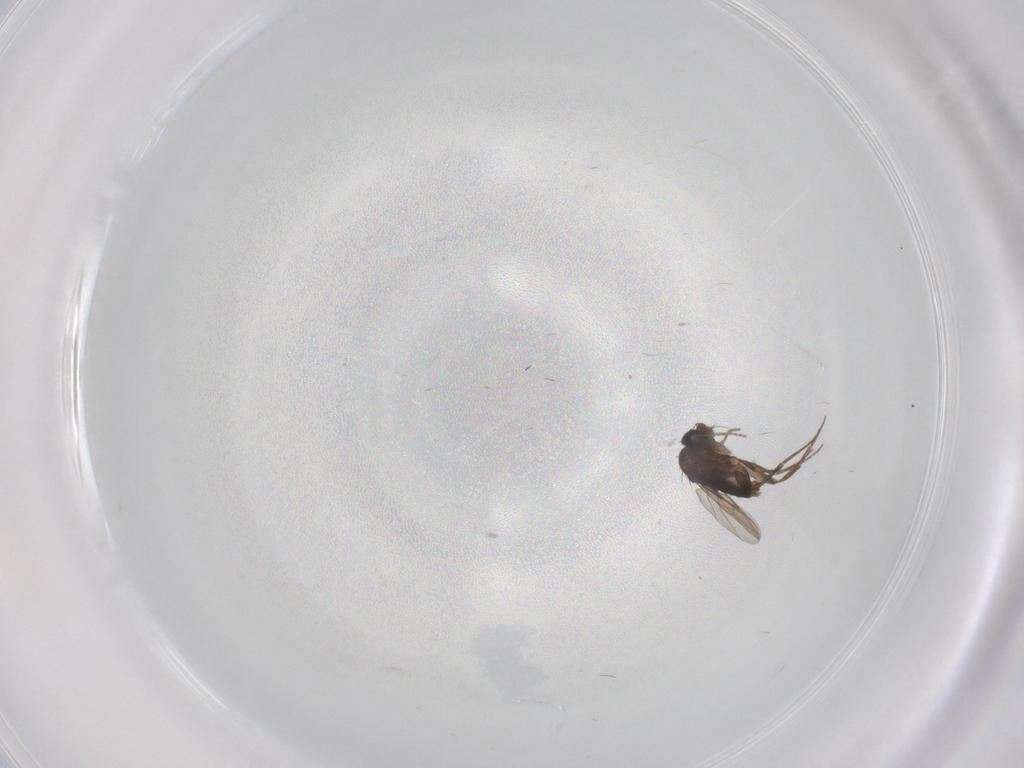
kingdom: Animalia
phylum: Arthropoda
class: Insecta
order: Diptera
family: Phoridae
